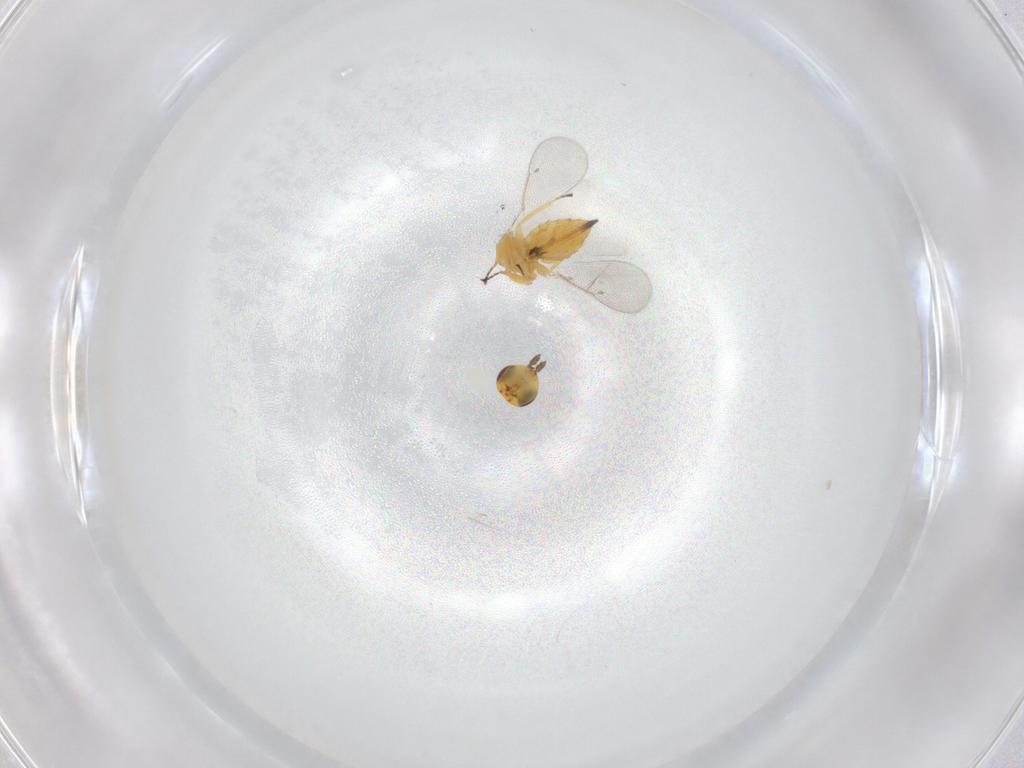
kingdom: Animalia
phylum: Arthropoda
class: Insecta
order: Hymenoptera
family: Eulophidae
